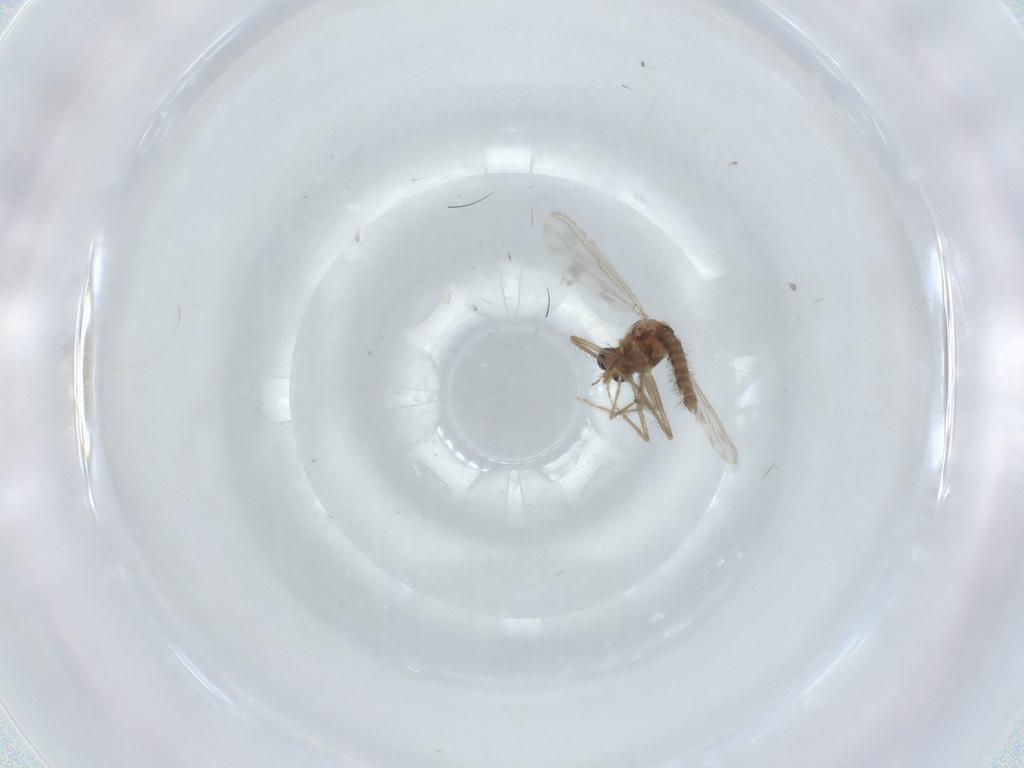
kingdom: Animalia
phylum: Arthropoda
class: Insecta
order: Diptera
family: Chironomidae
